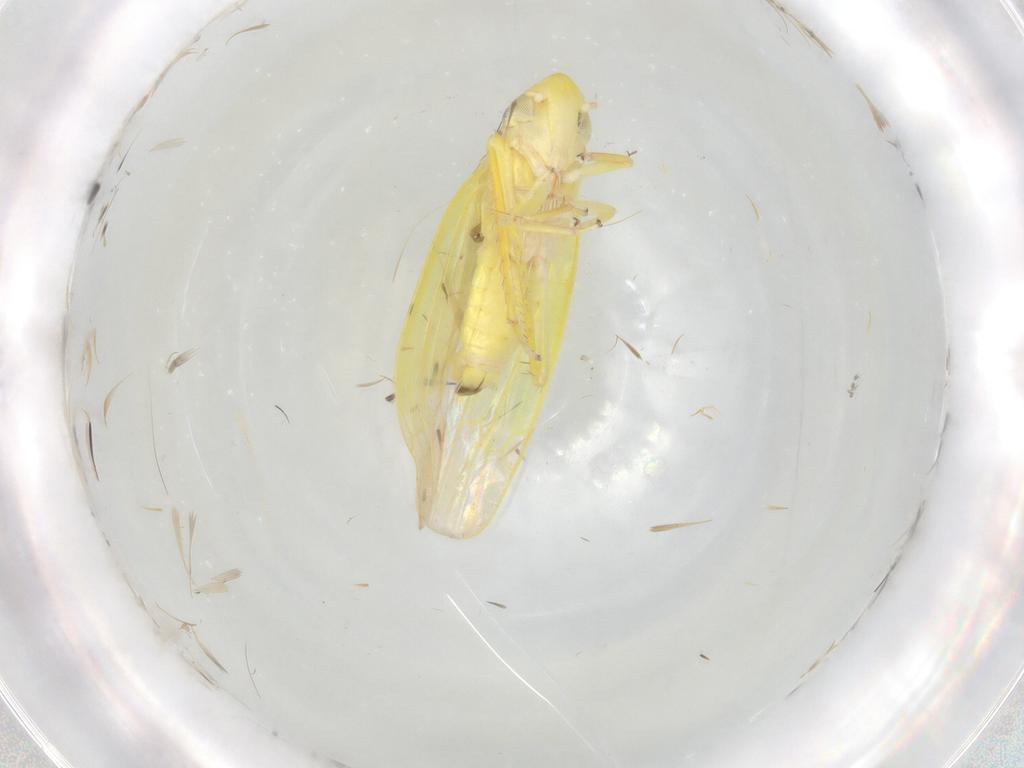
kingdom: Animalia
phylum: Arthropoda
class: Insecta
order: Hemiptera
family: Cicadellidae
